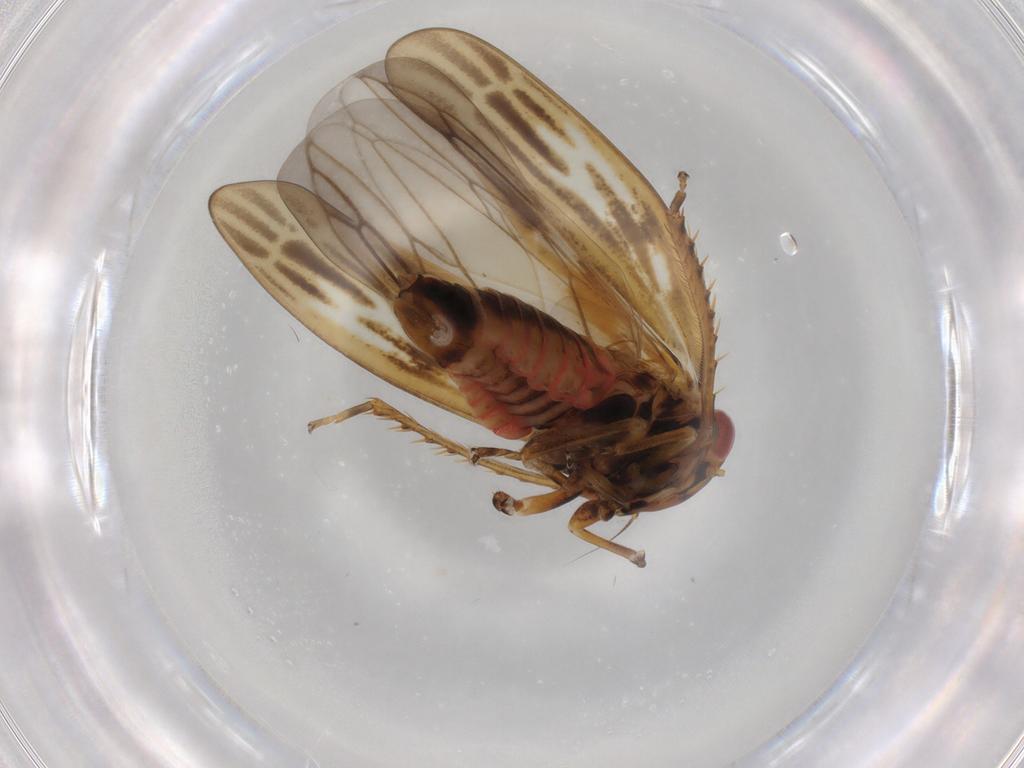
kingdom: Animalia
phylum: Arthropoda
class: Insecta
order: Hemiptera
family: Cicadellidae
